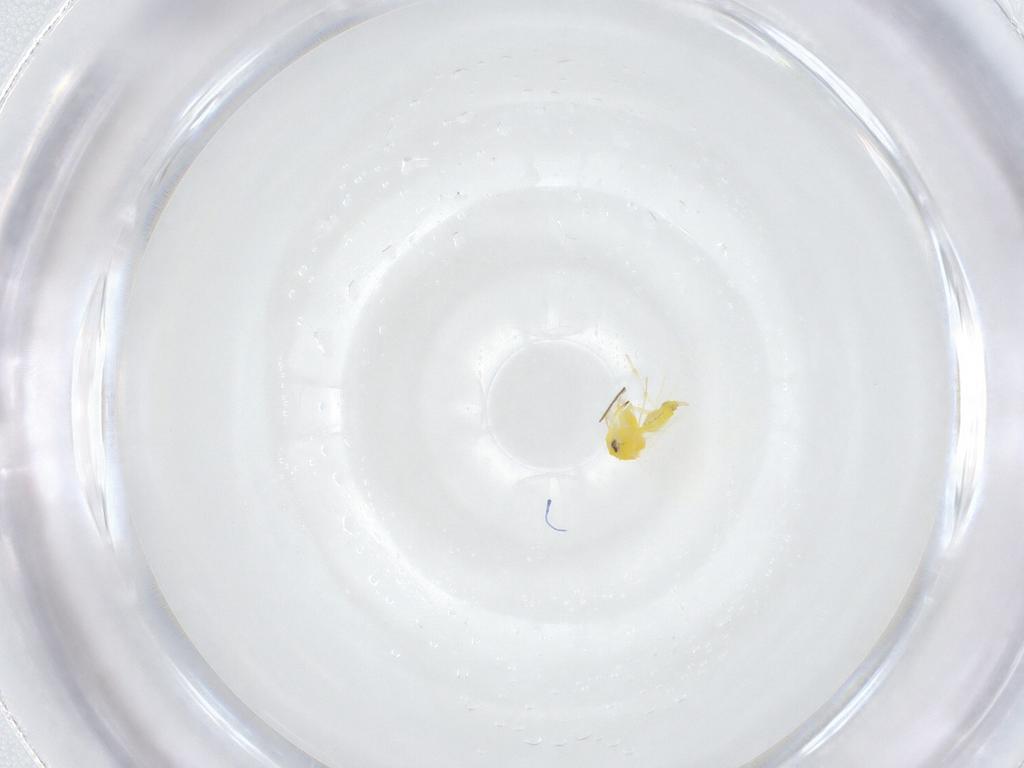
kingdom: Animalia
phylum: Arthropoda
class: Insecta
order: Hemiptera
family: Aleyrodidae
